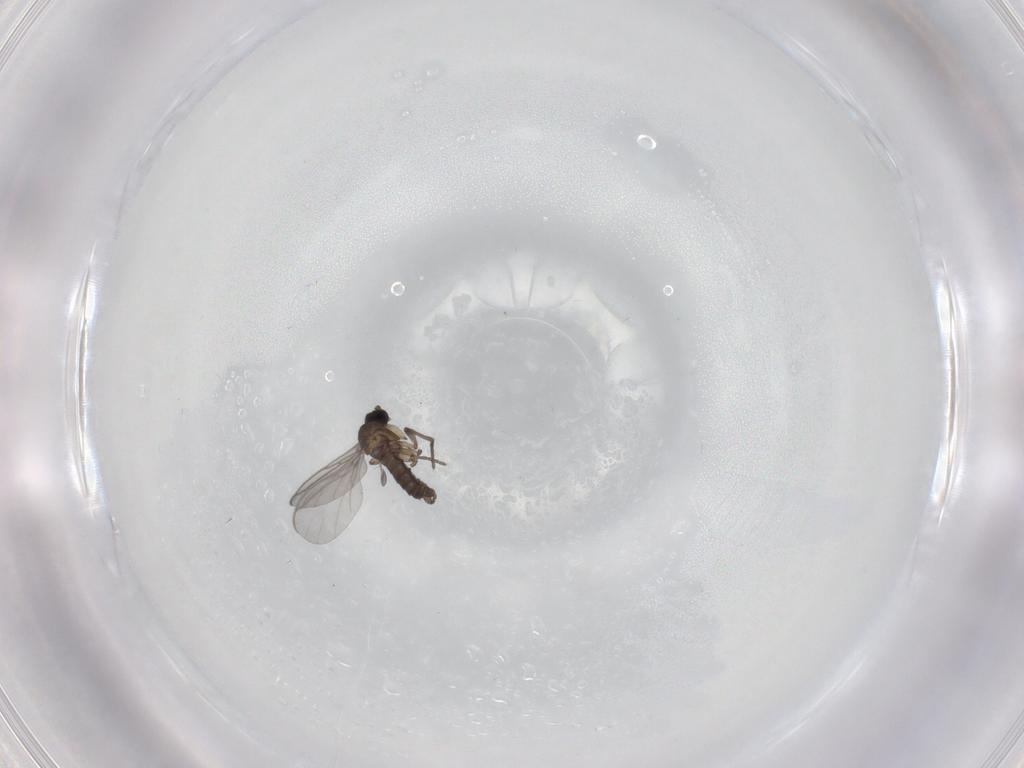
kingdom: Animalia
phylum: Arthropoda
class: Insecta
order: Diptera
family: Sciaridae
